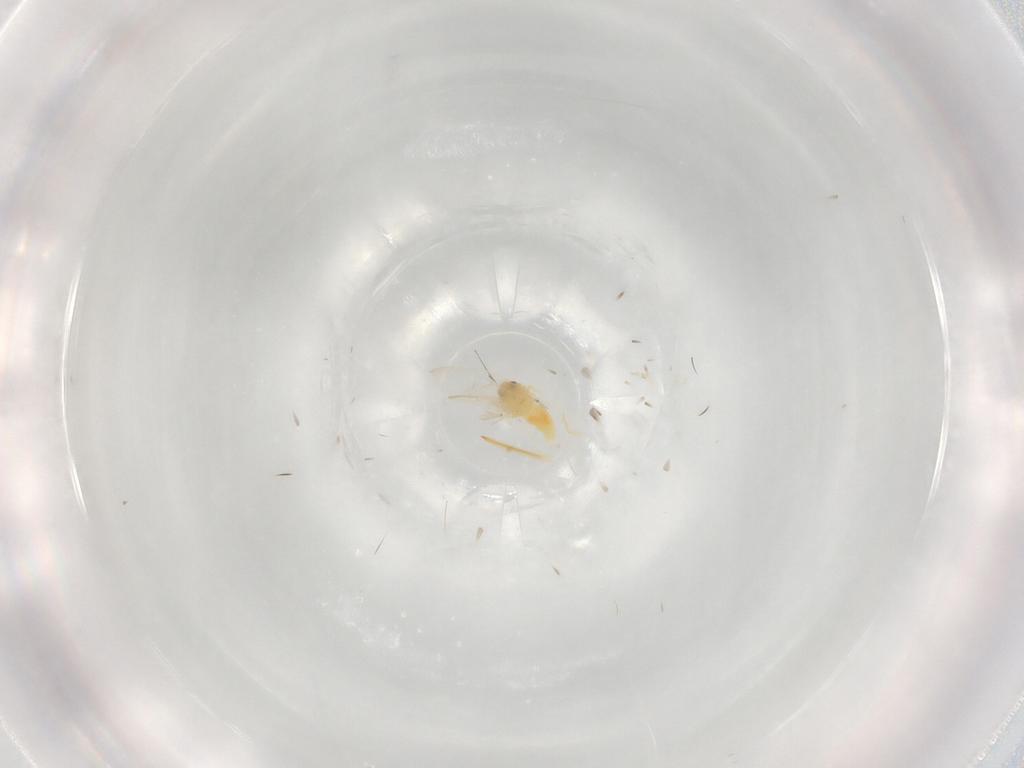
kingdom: Animalia
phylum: Arthropoda
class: Insecta
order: Hemiptera
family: Aleyrodidae
